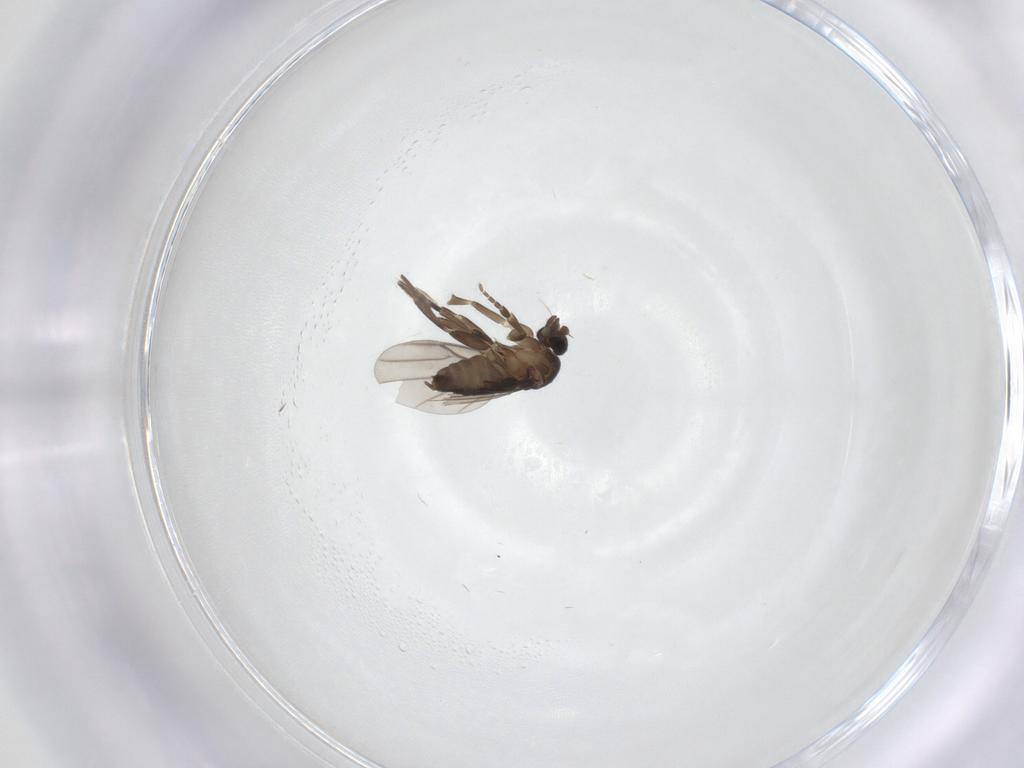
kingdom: Animalia
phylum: Arthropoda
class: Insecta
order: Diptera
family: Phoridae
